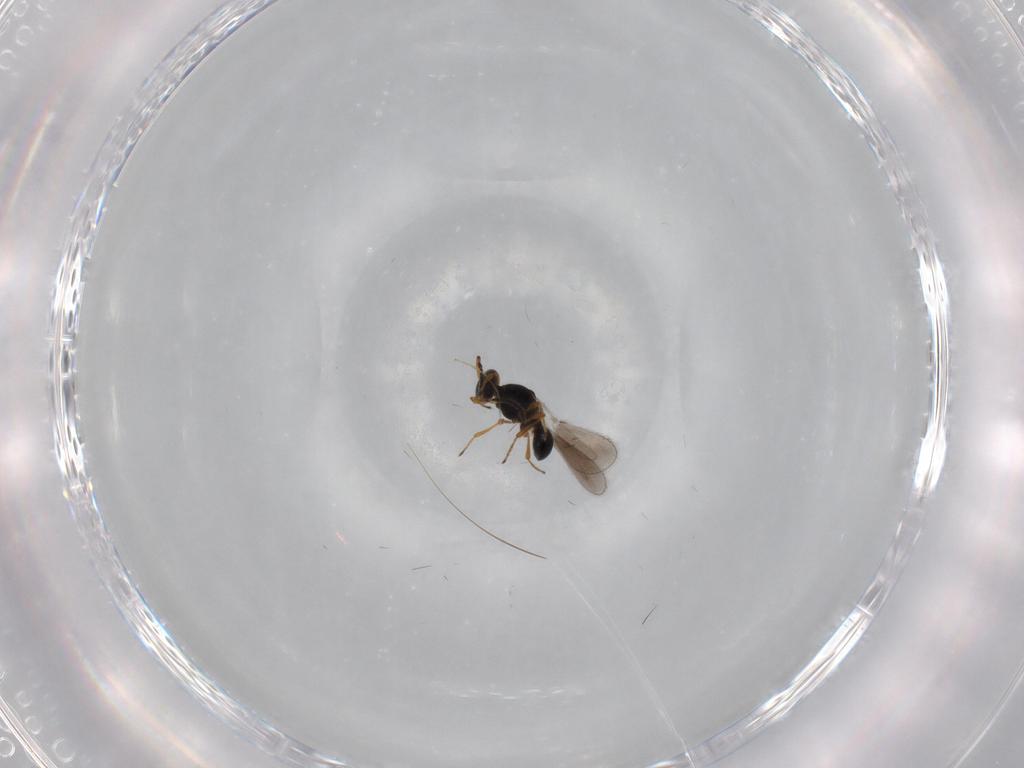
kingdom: Animalia
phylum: Arthropoda
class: Insecta
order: Hymenoptera
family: Platygastridae
